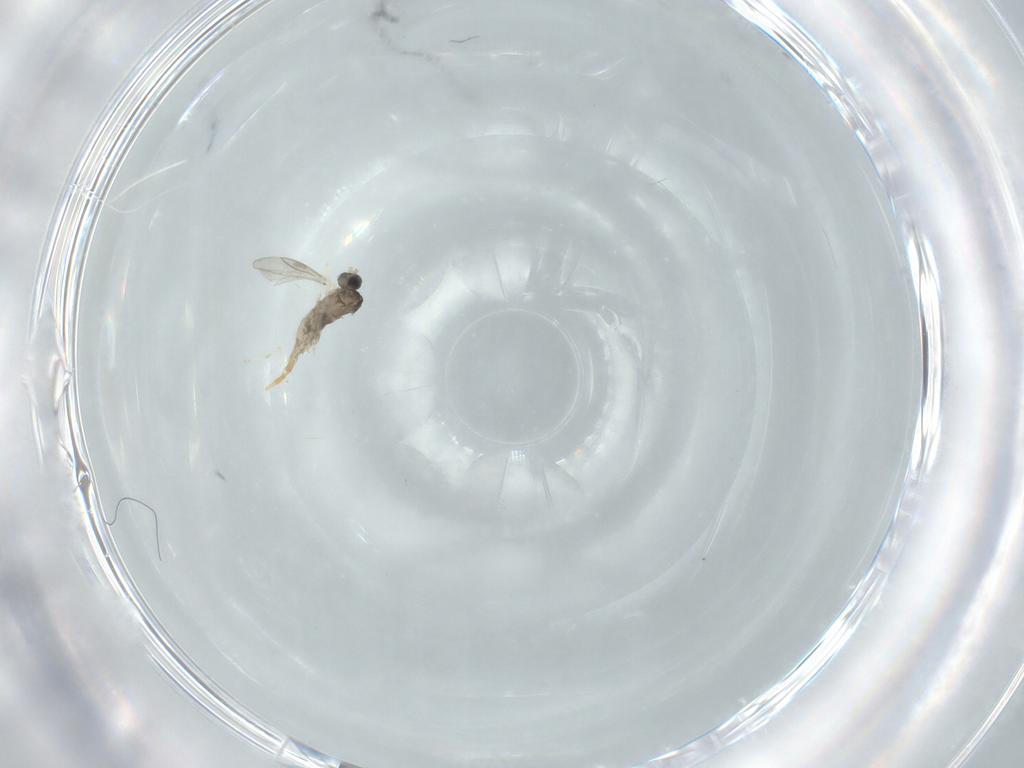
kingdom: Animalia
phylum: Arthropoda
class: Insecta
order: Diptera
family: Cecidomyiidae
